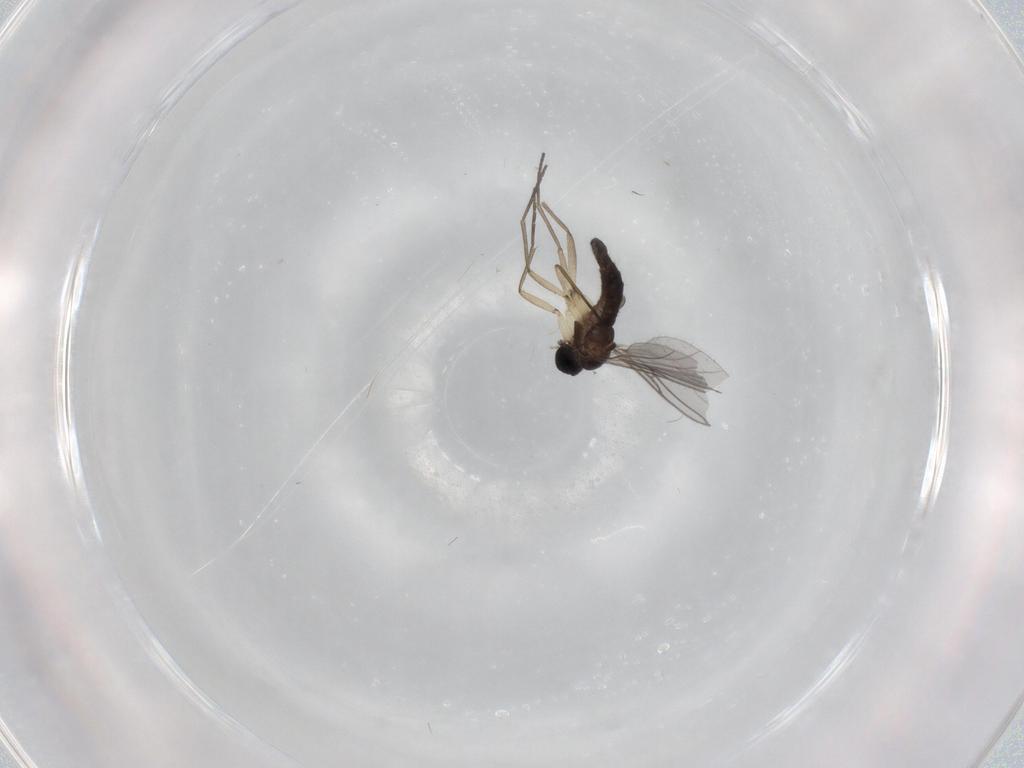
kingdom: Animalia
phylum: Arthropoda
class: Insecta
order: Diptera
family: Sciaridae
